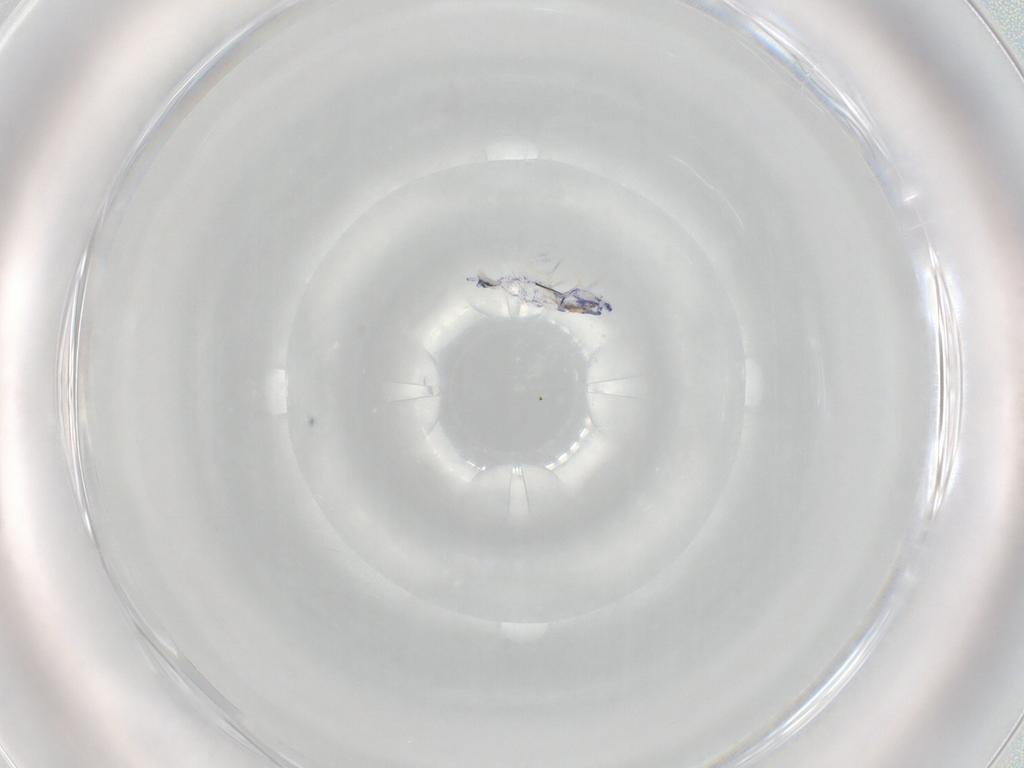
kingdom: Animalia
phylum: Arthropoda
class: Collembola
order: Entomobryomorpha
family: Entomobryidae
